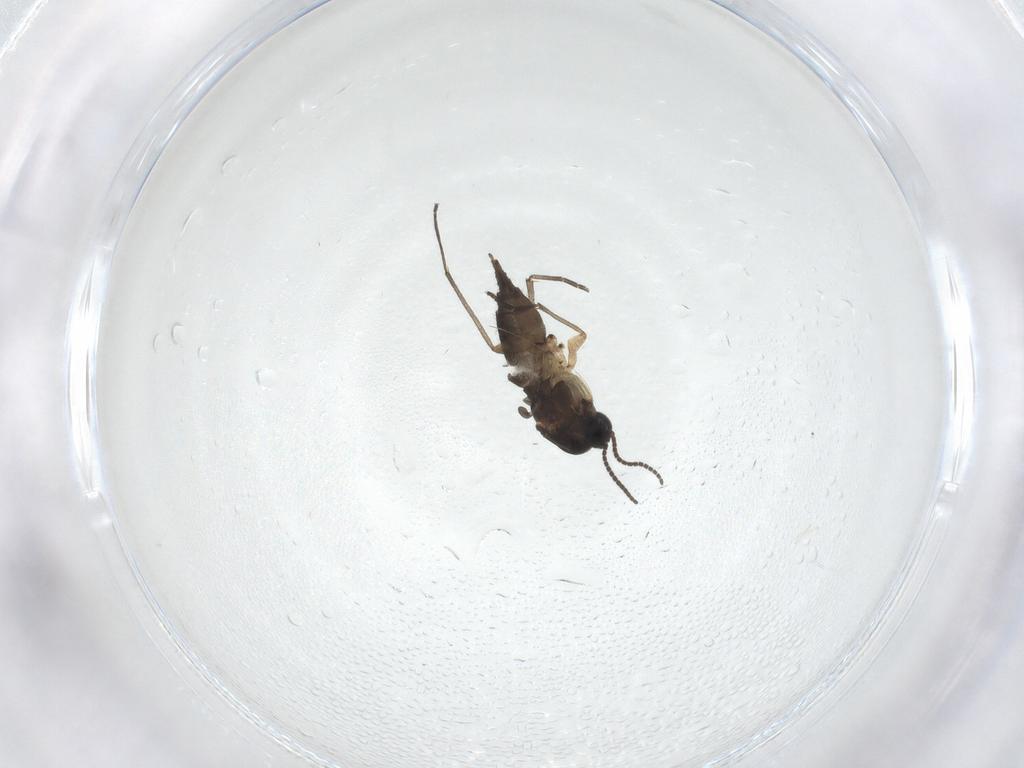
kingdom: Animalia
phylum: Arthropoda
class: Insecta
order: Diptera
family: Sciaridae
